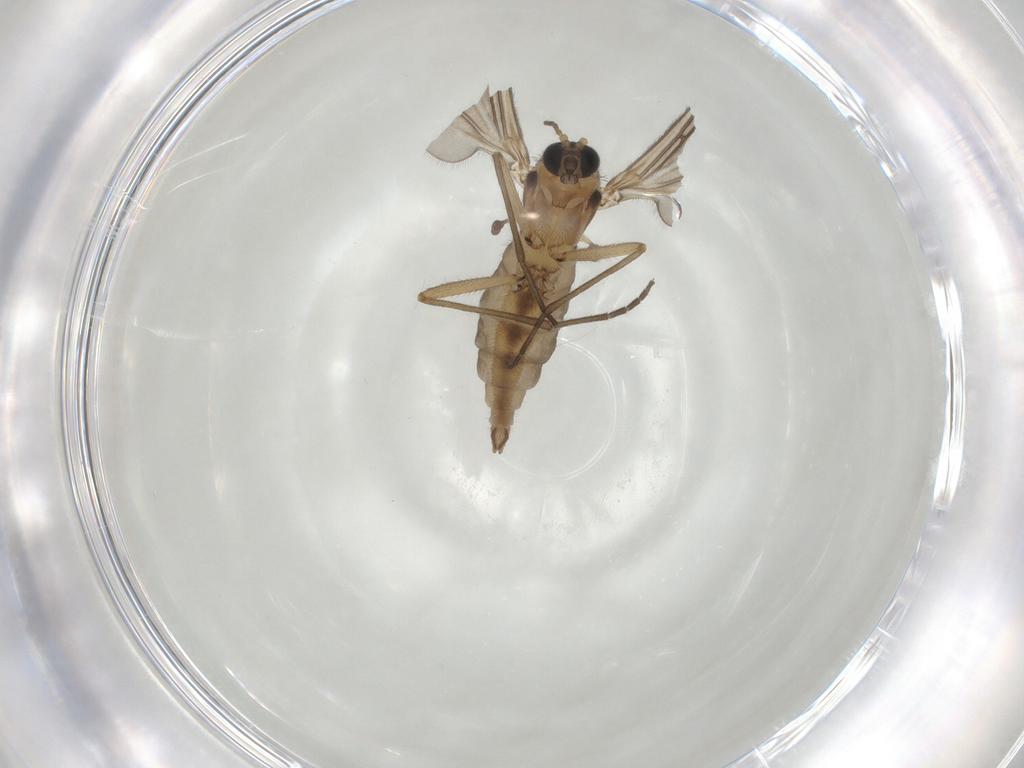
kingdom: Animalia
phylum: Arthropoda
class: Insecta
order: Diptera
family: Sciaridae
